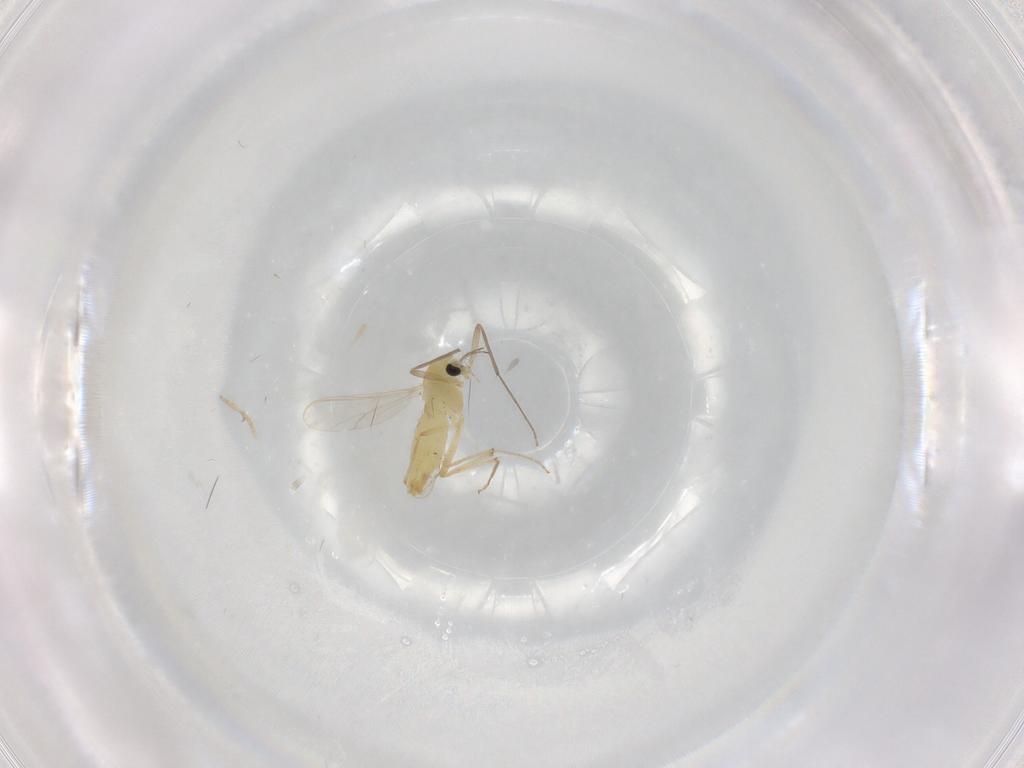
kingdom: Animalia
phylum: Arthropoda
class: Insecta
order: Diptera
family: Chironomidae
